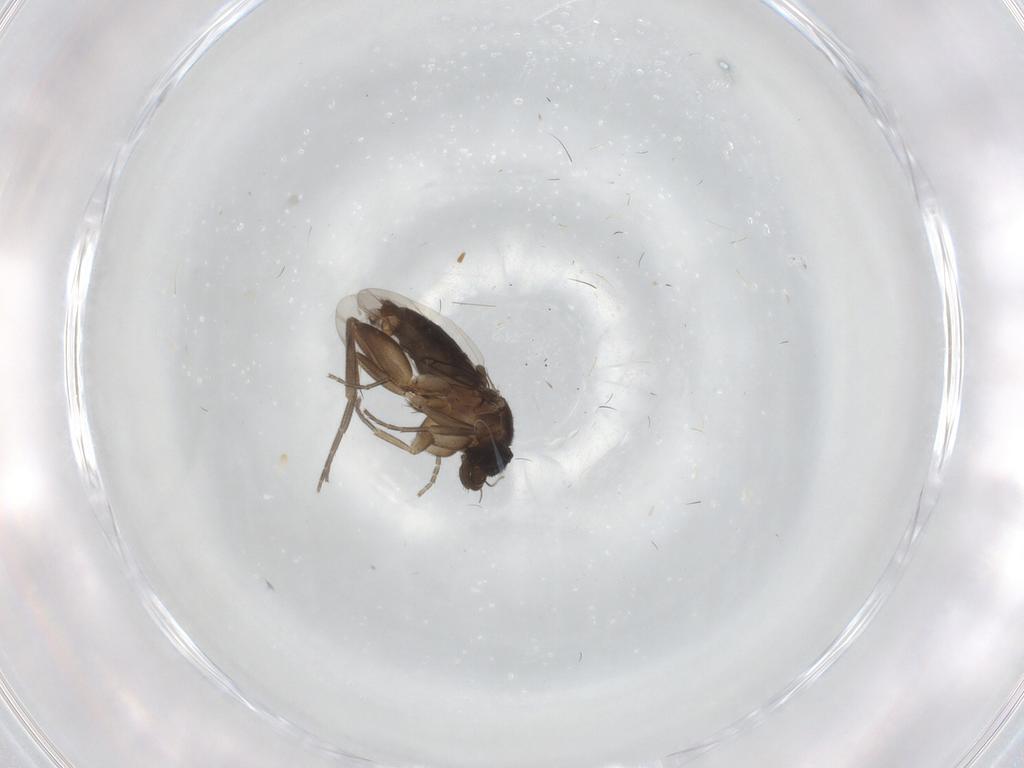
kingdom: Animalia
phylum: Arthropoda
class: Insecta
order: Diptera
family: Phoridae
